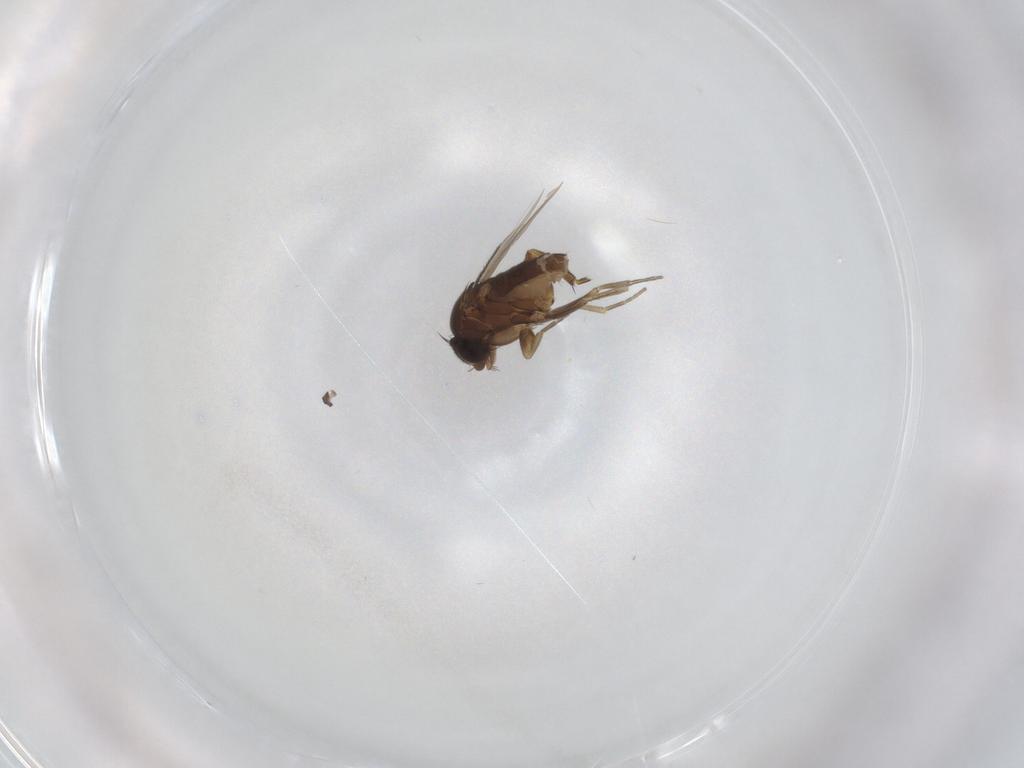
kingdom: Animalia
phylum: Arthropoda
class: Insecta
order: Diptera
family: Phoridae
